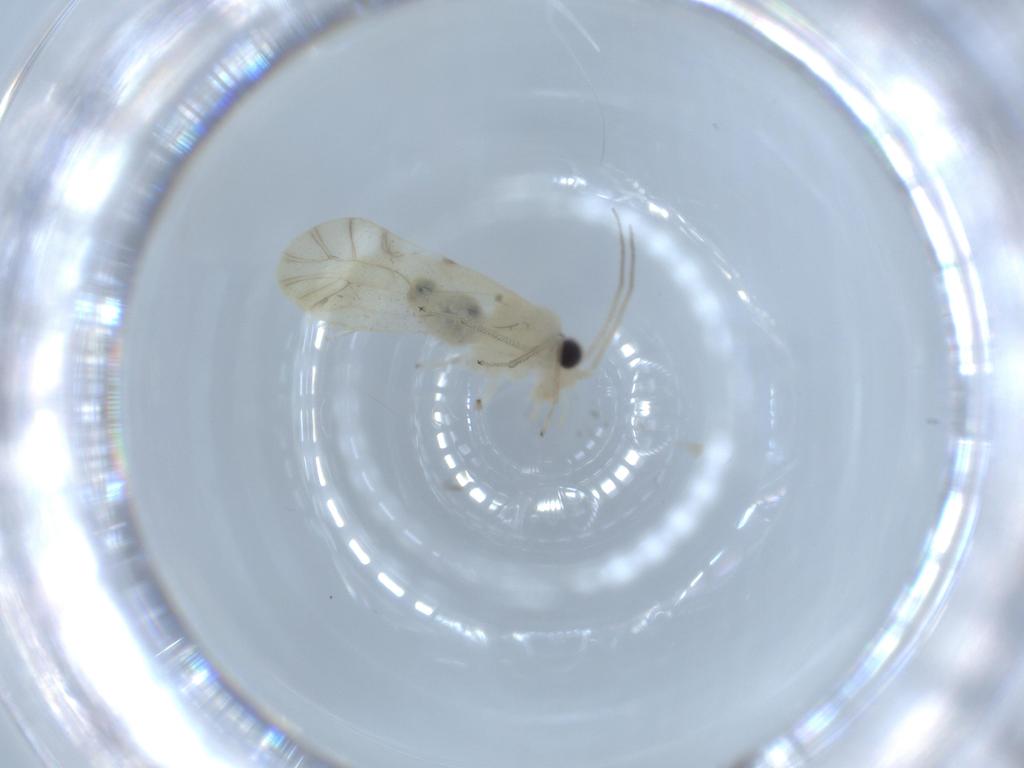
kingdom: Animalia
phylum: Arthropoda
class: Insecta
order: Psocodea
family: Caeciliusidae
